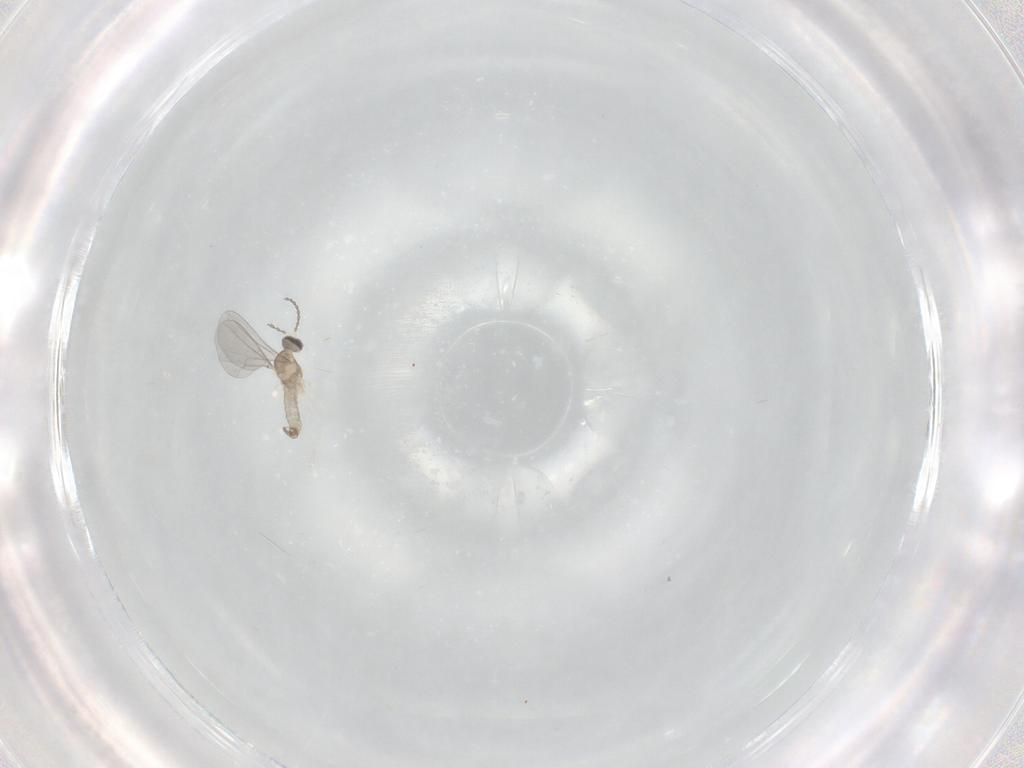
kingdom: Animalia
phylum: Arthropoda
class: Insecta
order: Diptera
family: Cecidomyiidae
